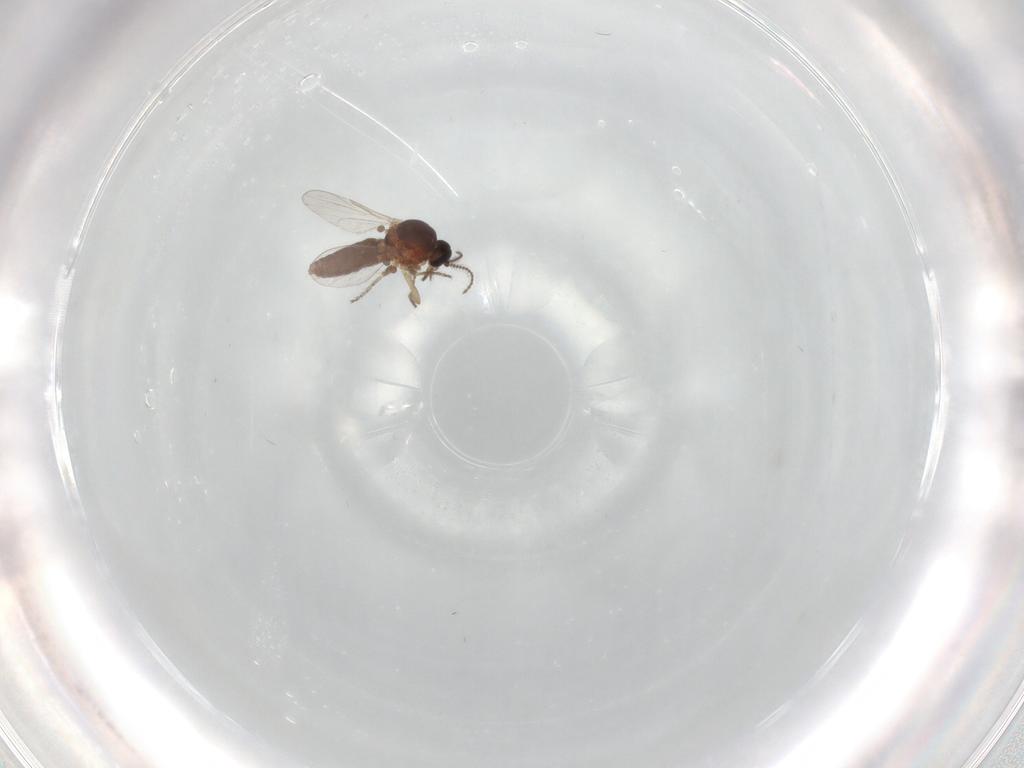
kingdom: Animalia
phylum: Arthropoda
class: Insecta
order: Diptera
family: Ceratopogonidae
